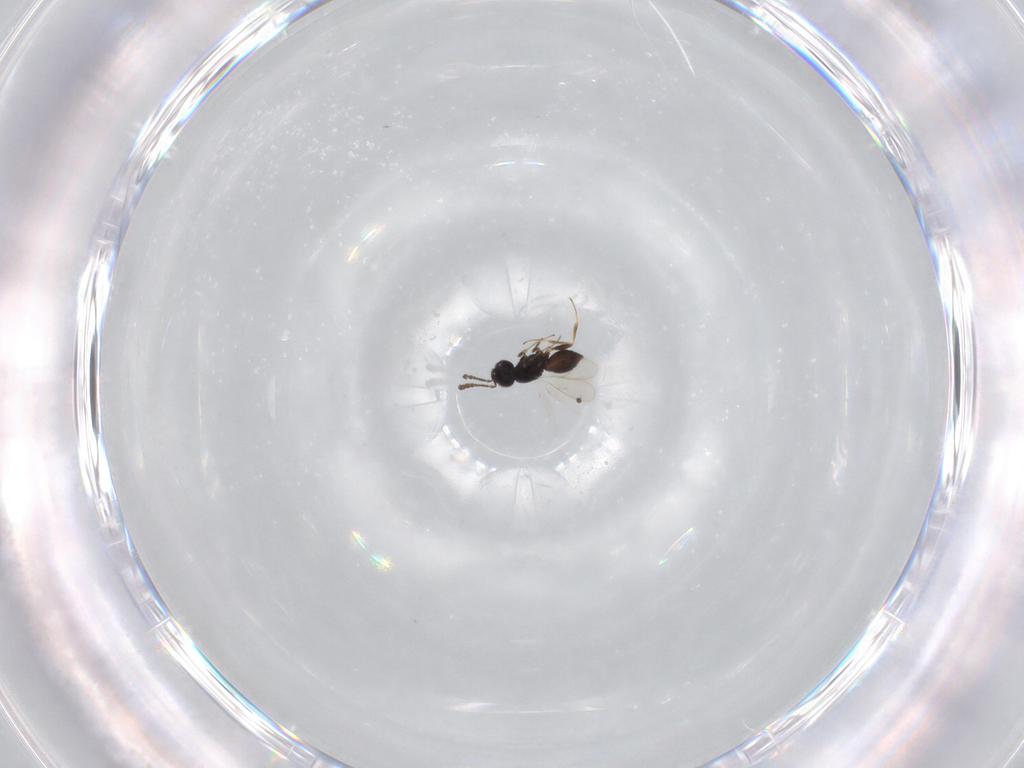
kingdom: Animalia
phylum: Arthropoda
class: Insecta
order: Hymenoptera
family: Scelionidae
